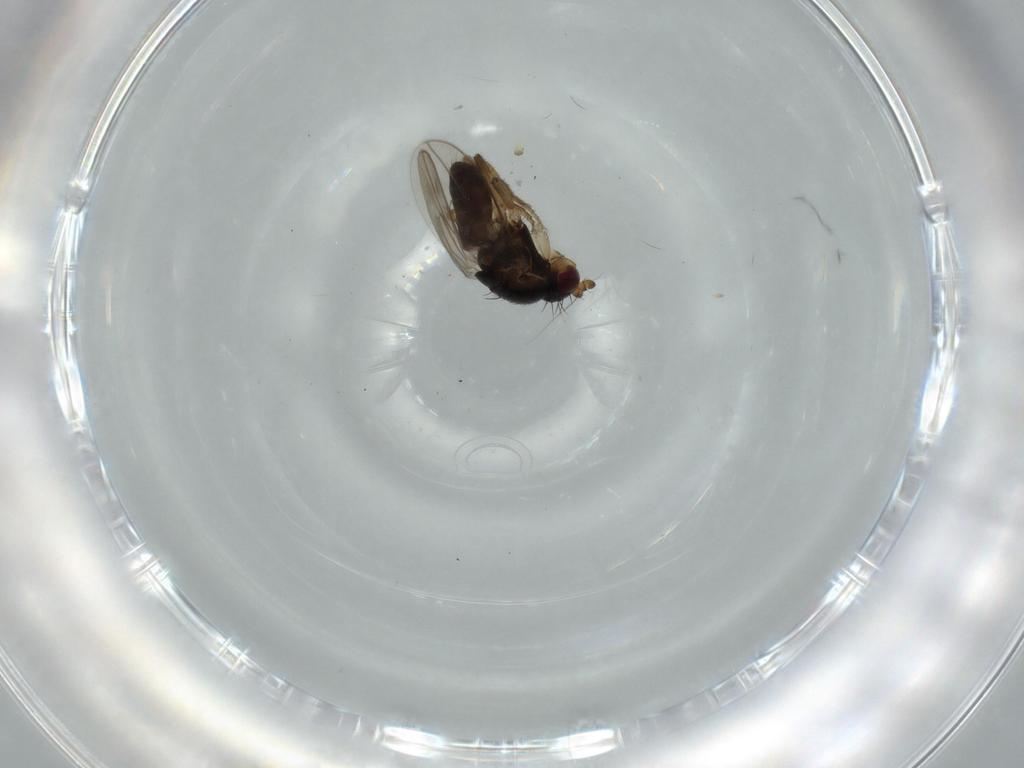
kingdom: Animalia
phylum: Arthropoda
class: Insecta
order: Diptera
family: Sphaeroceridae
